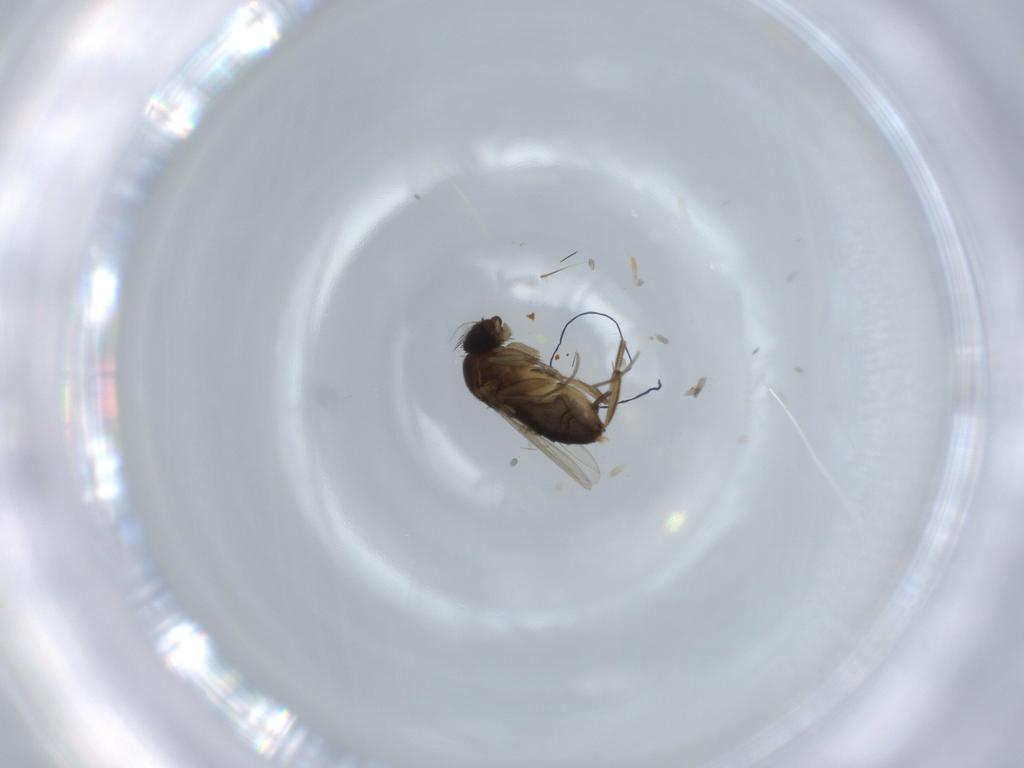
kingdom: Animalia
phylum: Arthropoda
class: Insecta
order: Diptera
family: Phoridae
